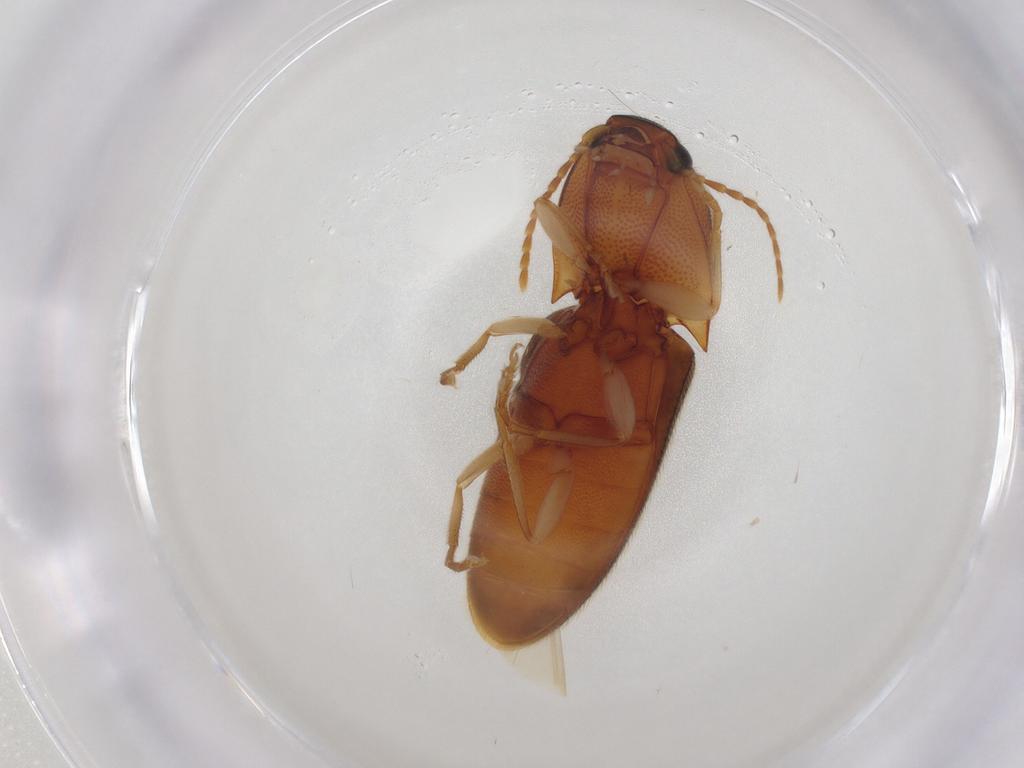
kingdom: Animalia
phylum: Arthropoda
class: Insecta
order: Coleoptera
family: Elateridae
